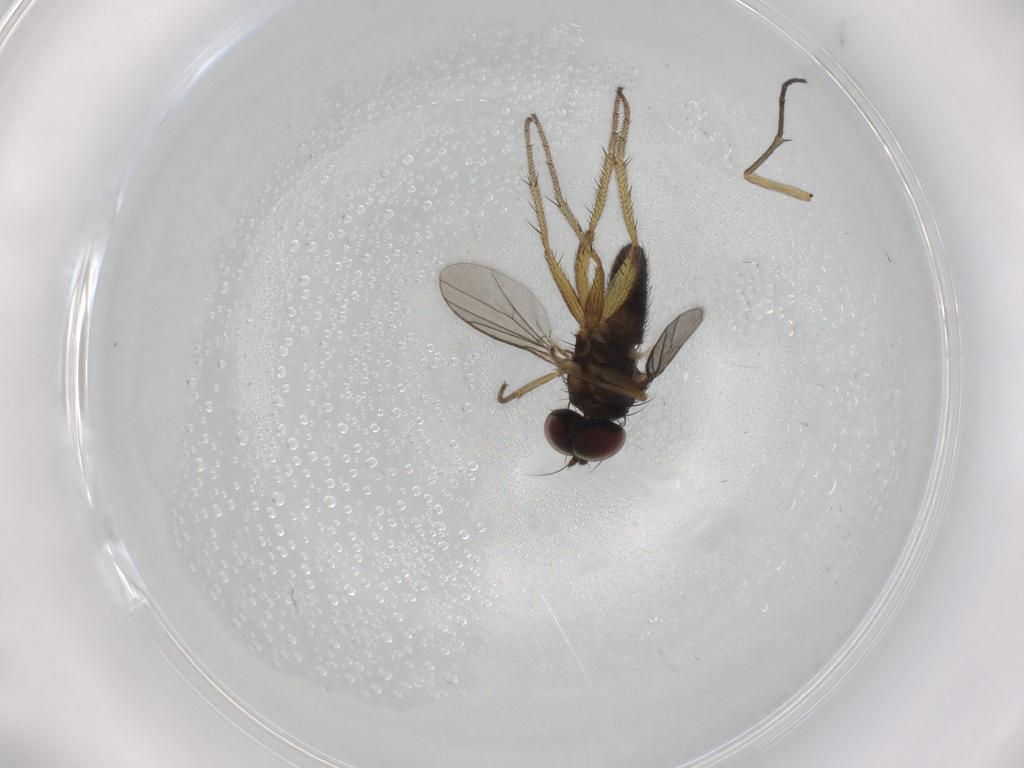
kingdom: Animalia
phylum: Arthropoda
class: Insecta
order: Diptera
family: Chironomidae
